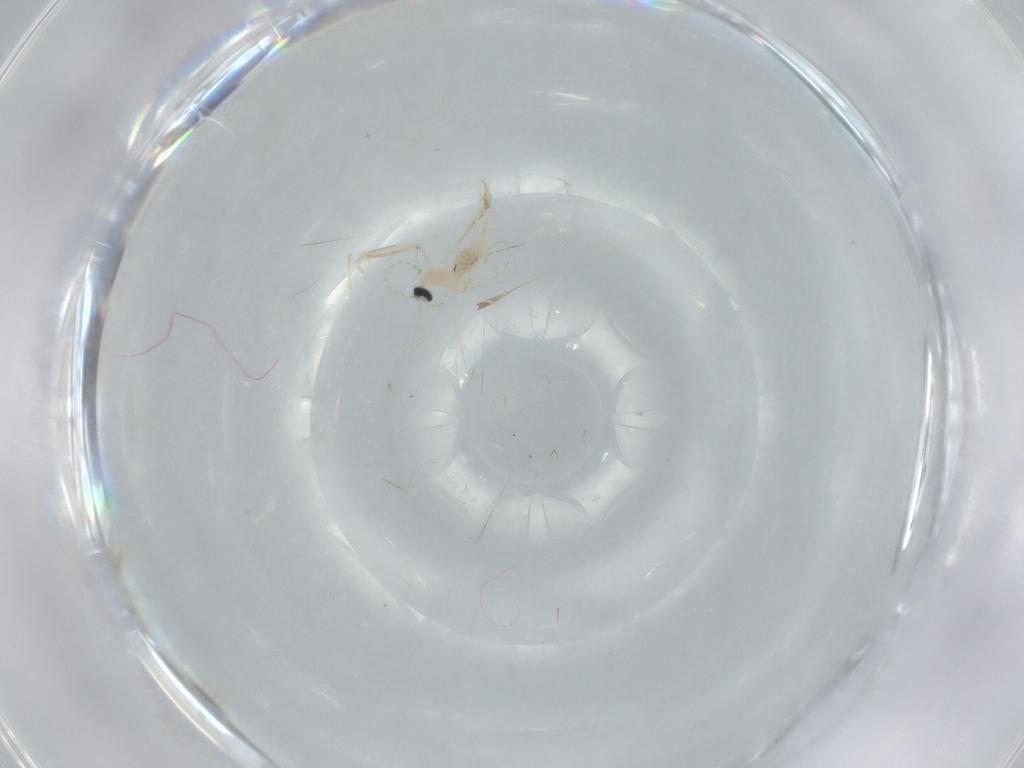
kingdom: Animalia
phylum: Arthropoda
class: Insecta
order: Diptera
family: Cecidomyiidae
